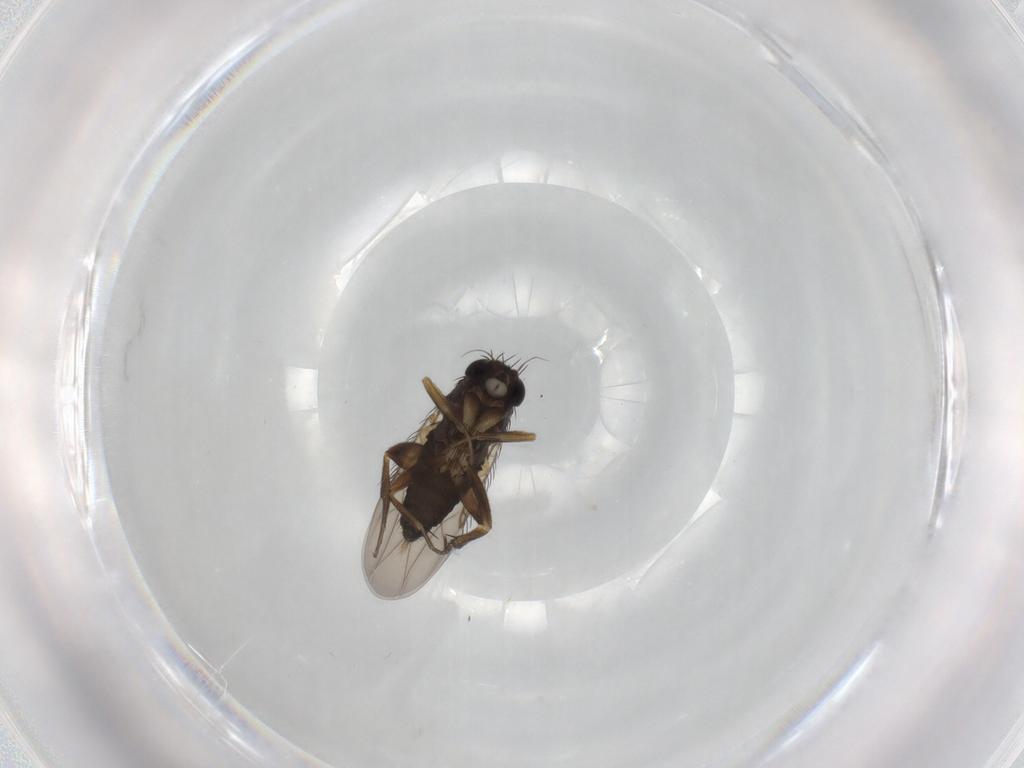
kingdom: Animalia
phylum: Arthropoda
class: Insecta
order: Diptera
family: Phoridae
